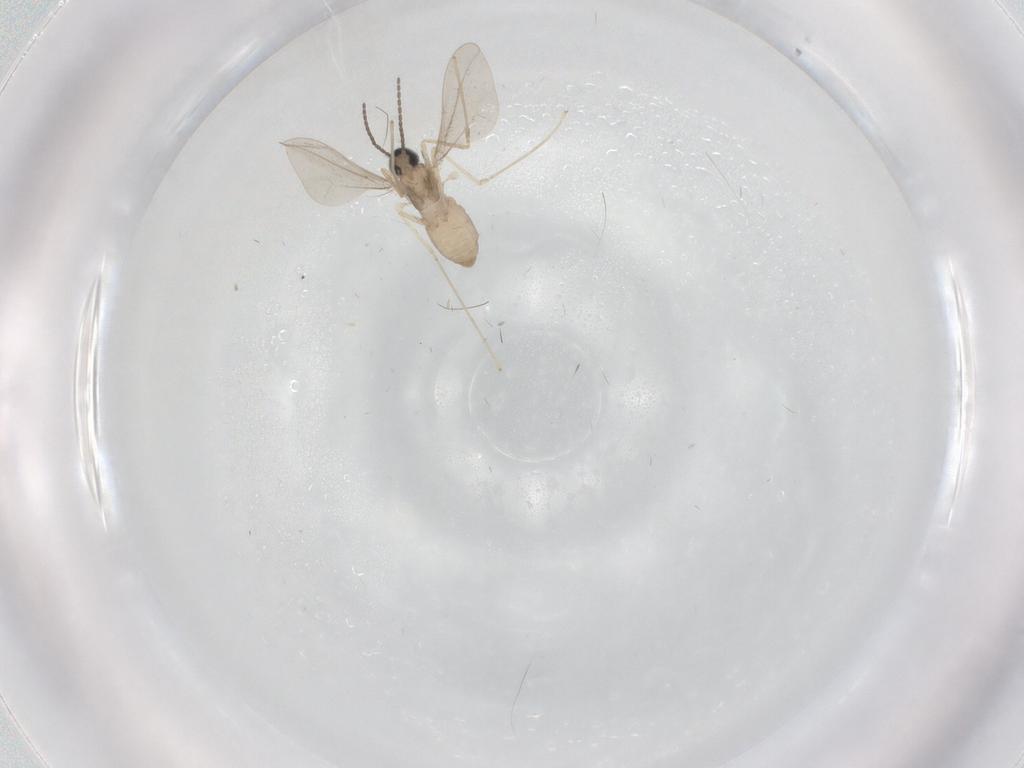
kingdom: Animalia
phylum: Arthropoda
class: Insecta
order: Diptera
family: Cecidomyiidae
